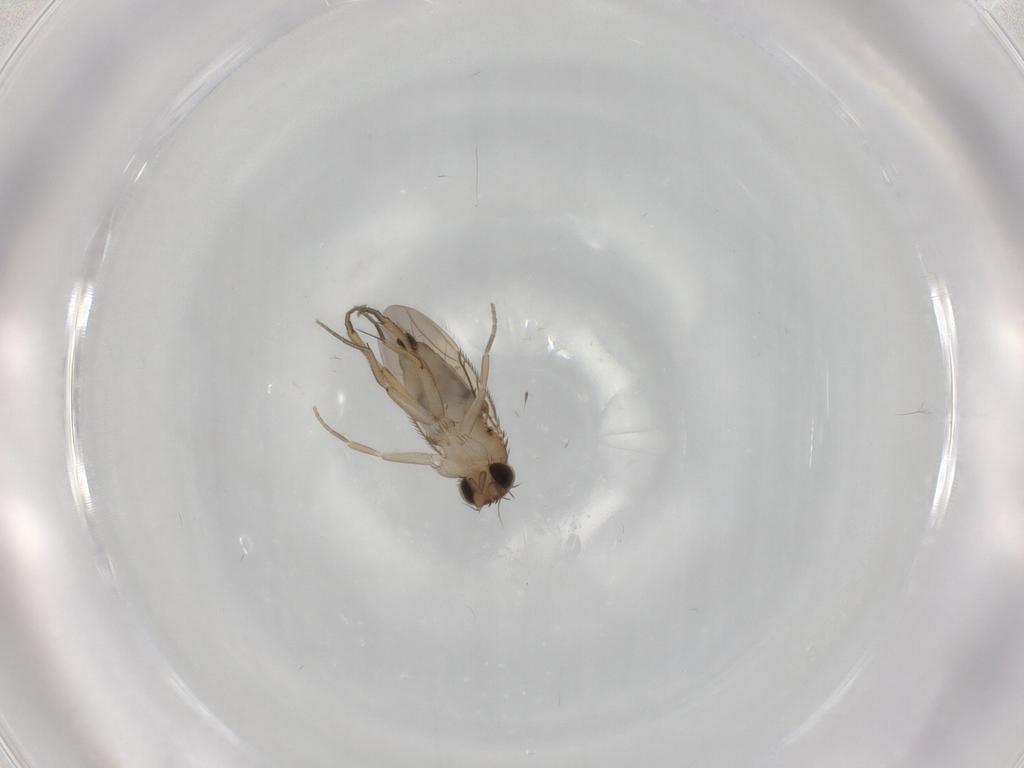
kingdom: Animalia
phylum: Arthropoda
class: Insecta
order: Diptera
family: Phoridae
